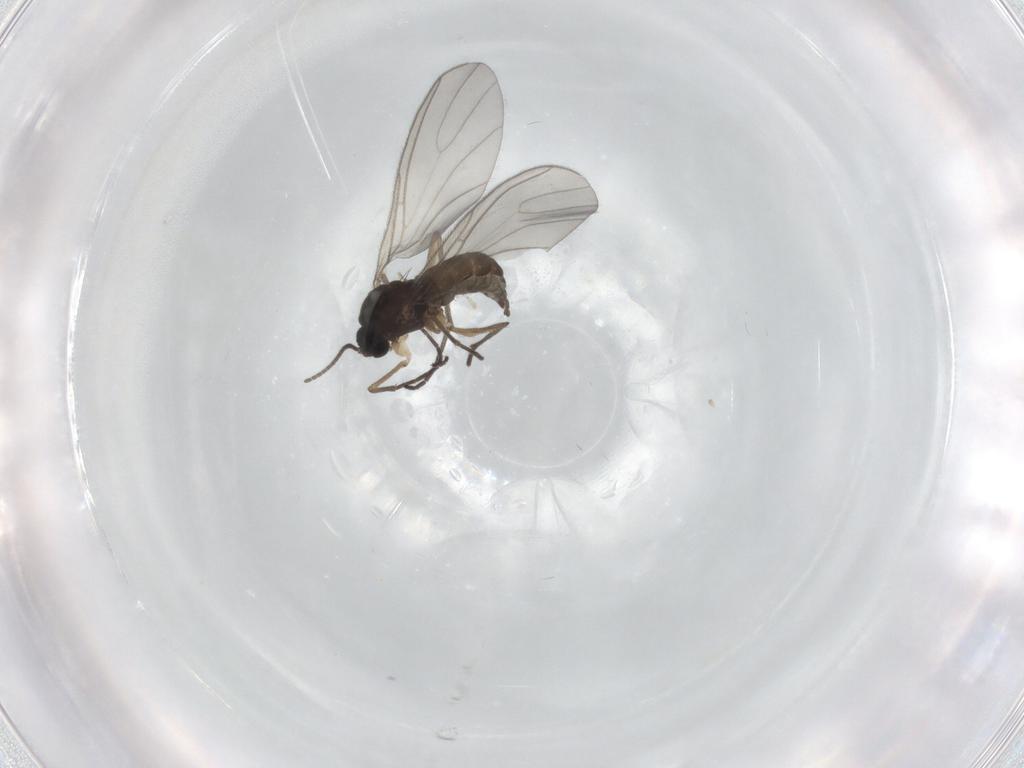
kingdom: Animalia
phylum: Arthropoda
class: Insecta
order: Diptera
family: Sciaridae
